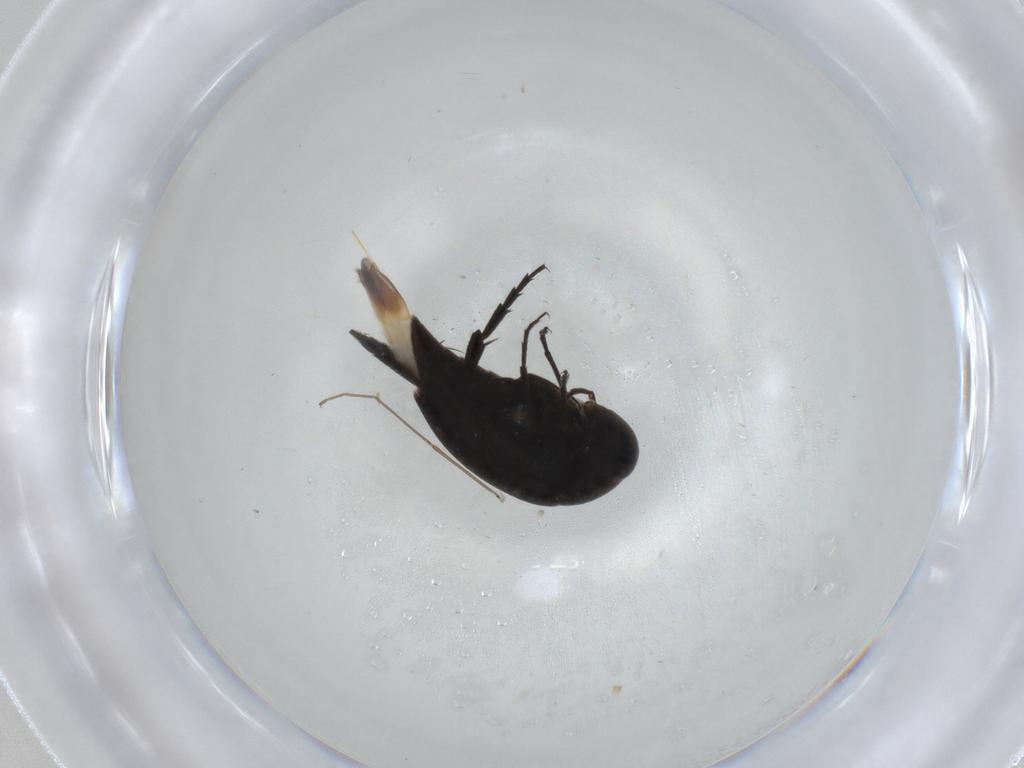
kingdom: Animalia
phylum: Arthropoda
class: Insecta
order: Coleoptera
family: Mordellidae
